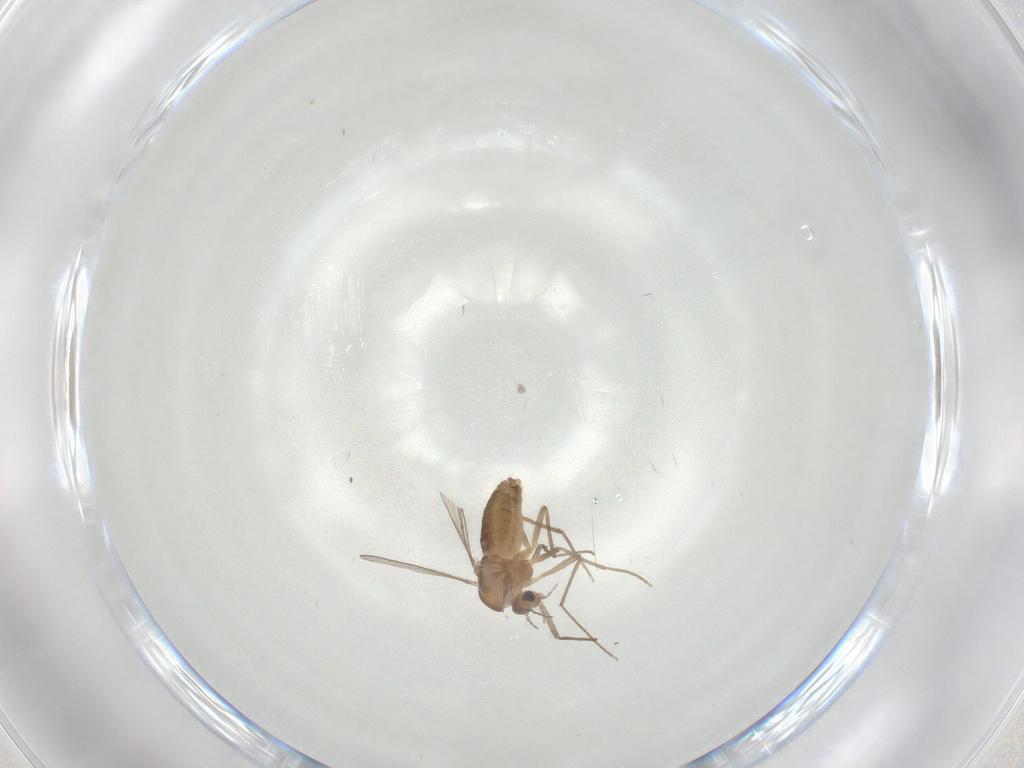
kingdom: Animalia
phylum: Arthropoda
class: Insecta
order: Diptera
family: Chironomidae
